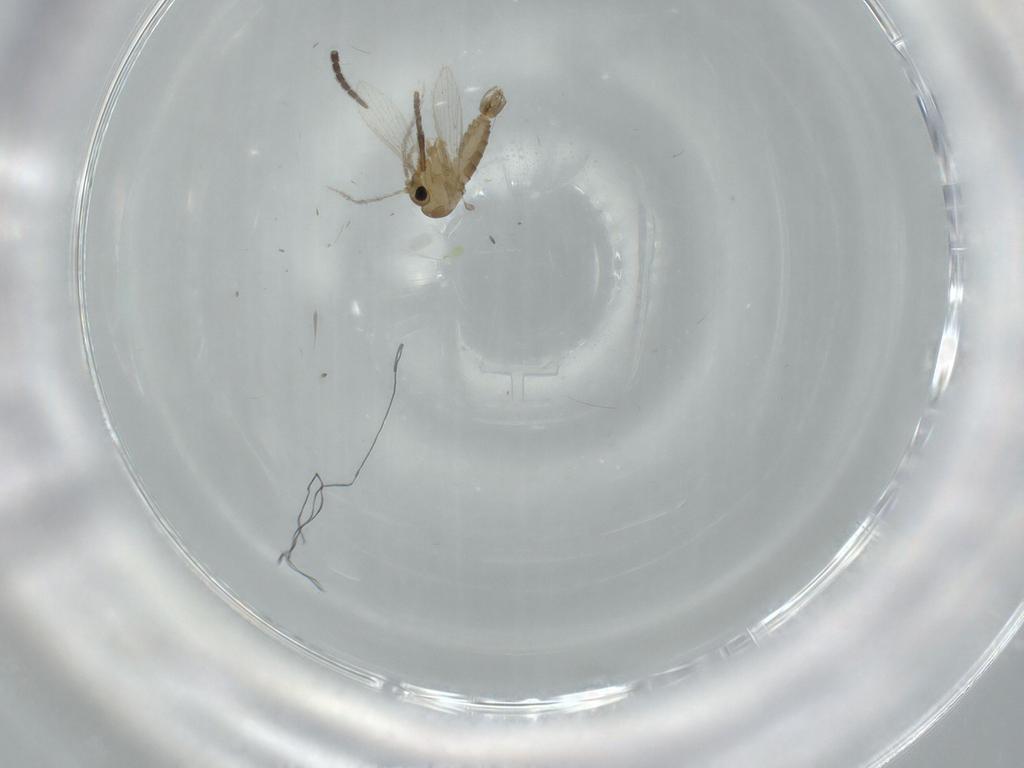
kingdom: Animalia
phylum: Arthropoda
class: Insecta
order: Diptera
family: Psychodidae
